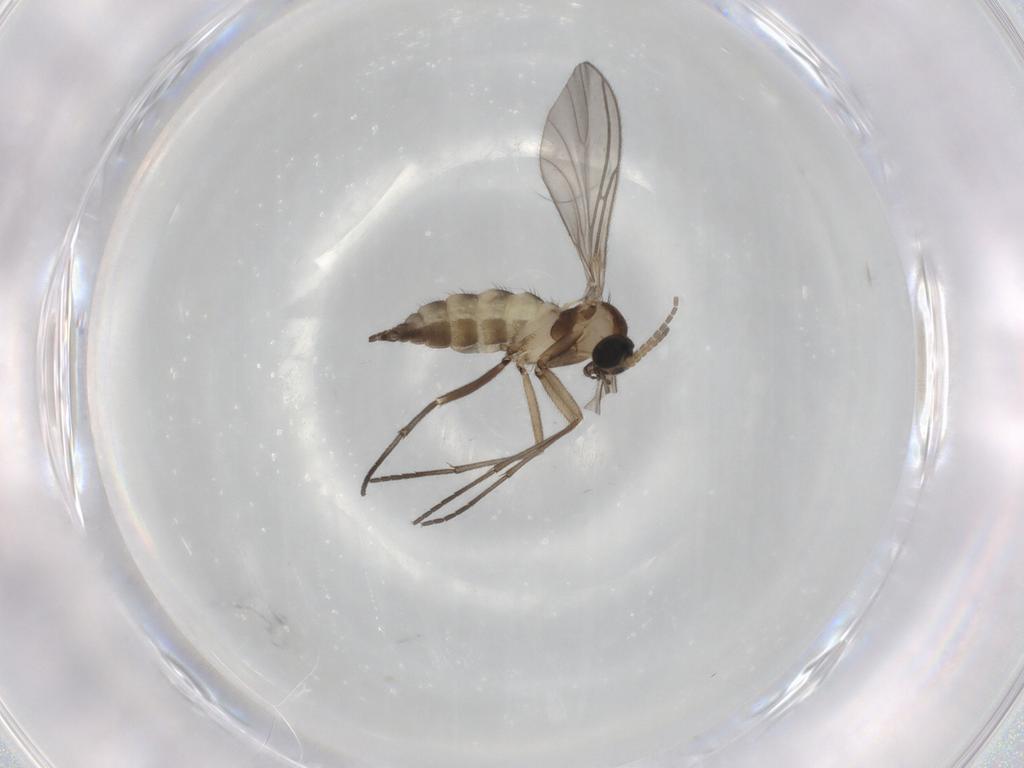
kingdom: Animalia
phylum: Arthropoda
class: Insecta
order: Diptera
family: Sciaridae
